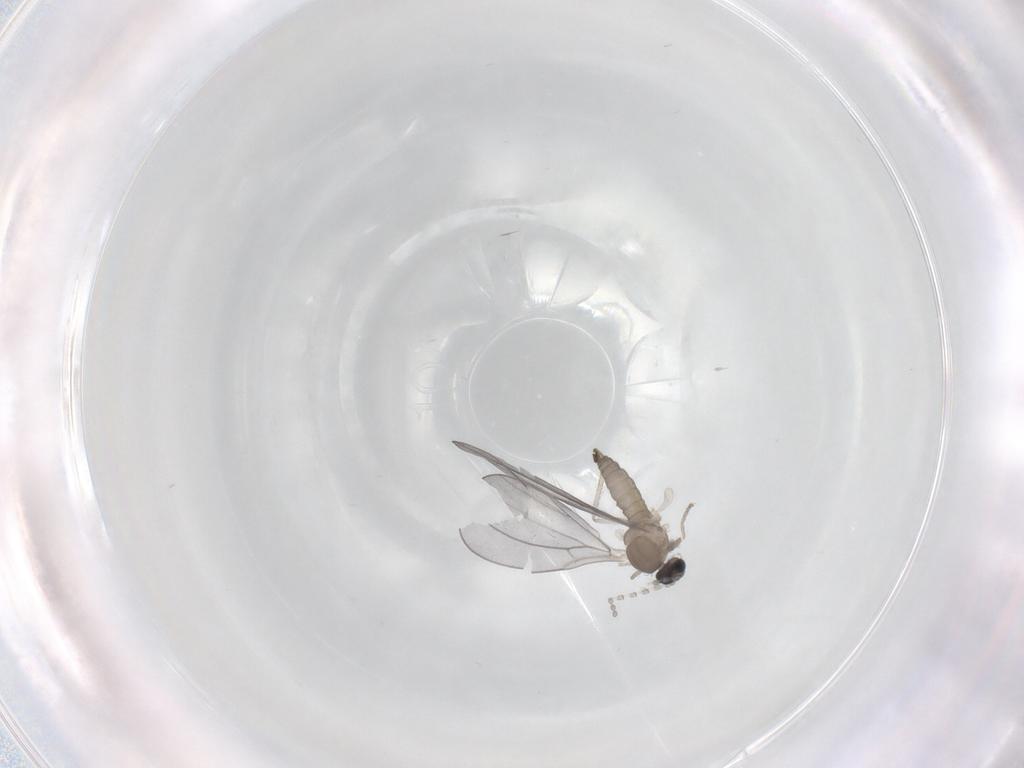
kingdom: Animalia
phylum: Arthropoda
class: Insecta
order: Diptera
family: Cecidomyiidae
